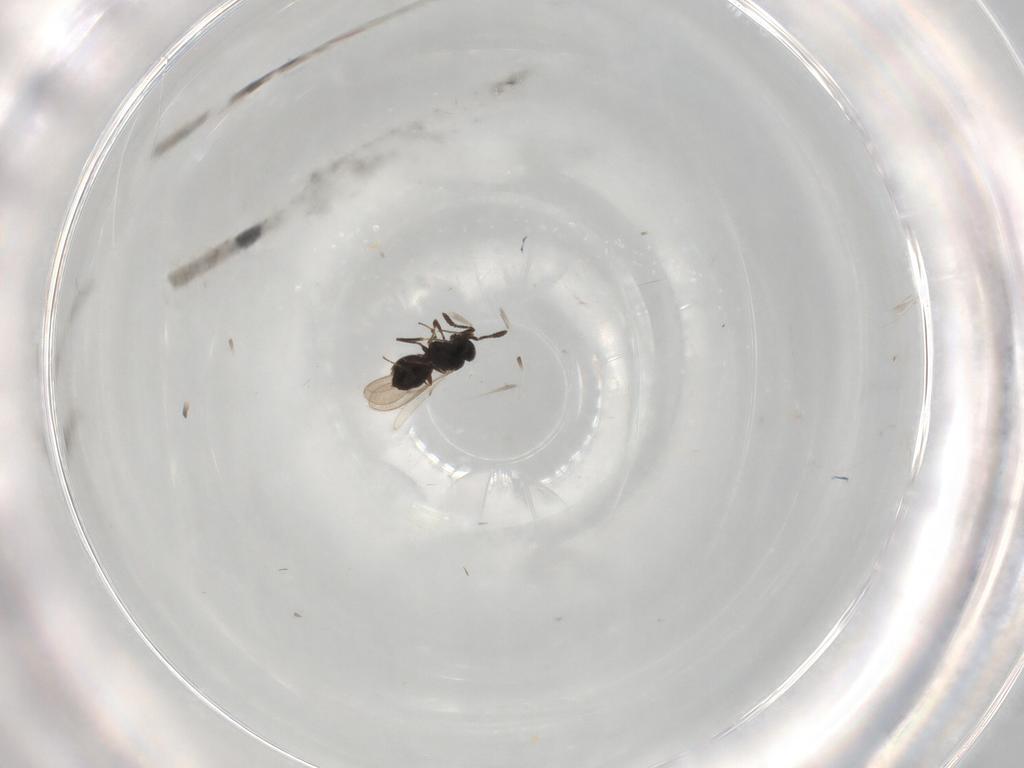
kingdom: Animalia
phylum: Arthropoda
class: Insecta
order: Hymenoptera
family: Scelionidae
